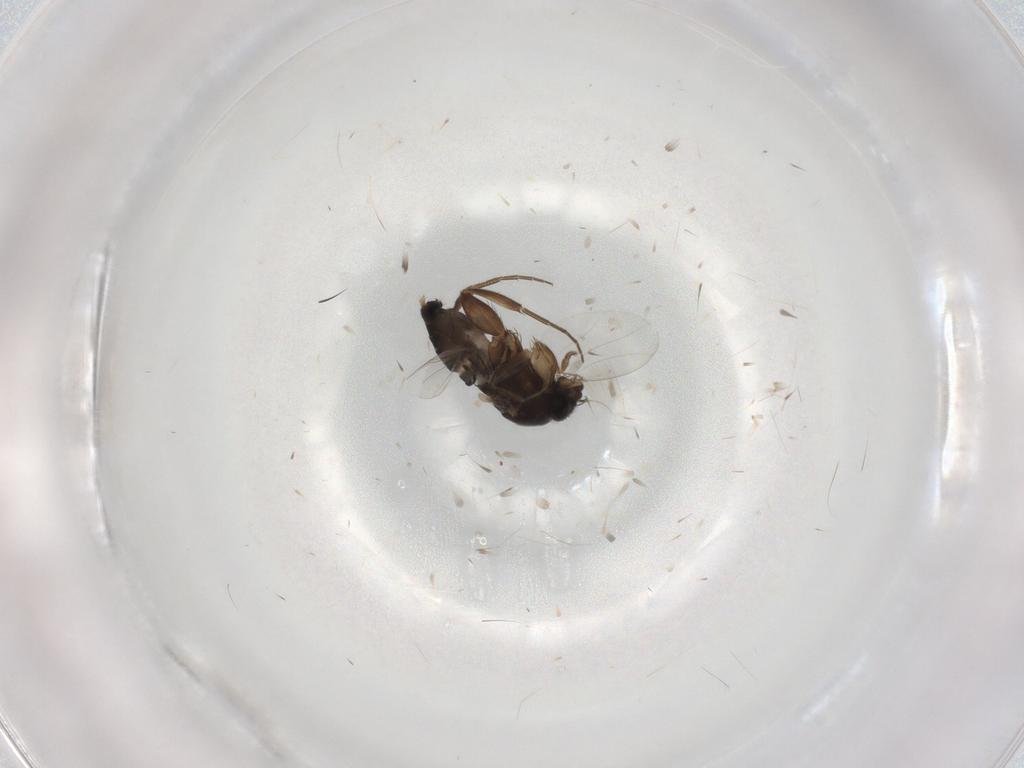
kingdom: Animalia
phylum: Arthropoda
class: Insecta
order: Diptera
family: Phoridae
